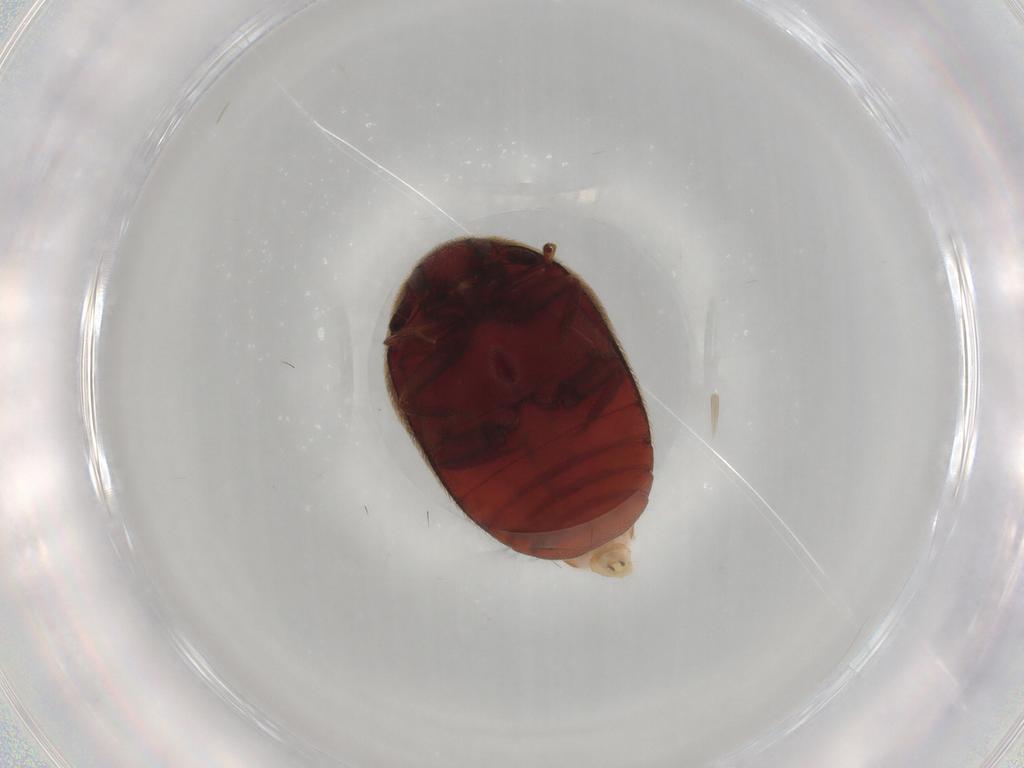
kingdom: Animalia
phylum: Arthropoda
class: Insecta
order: Coleoptera
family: Dermestidae
